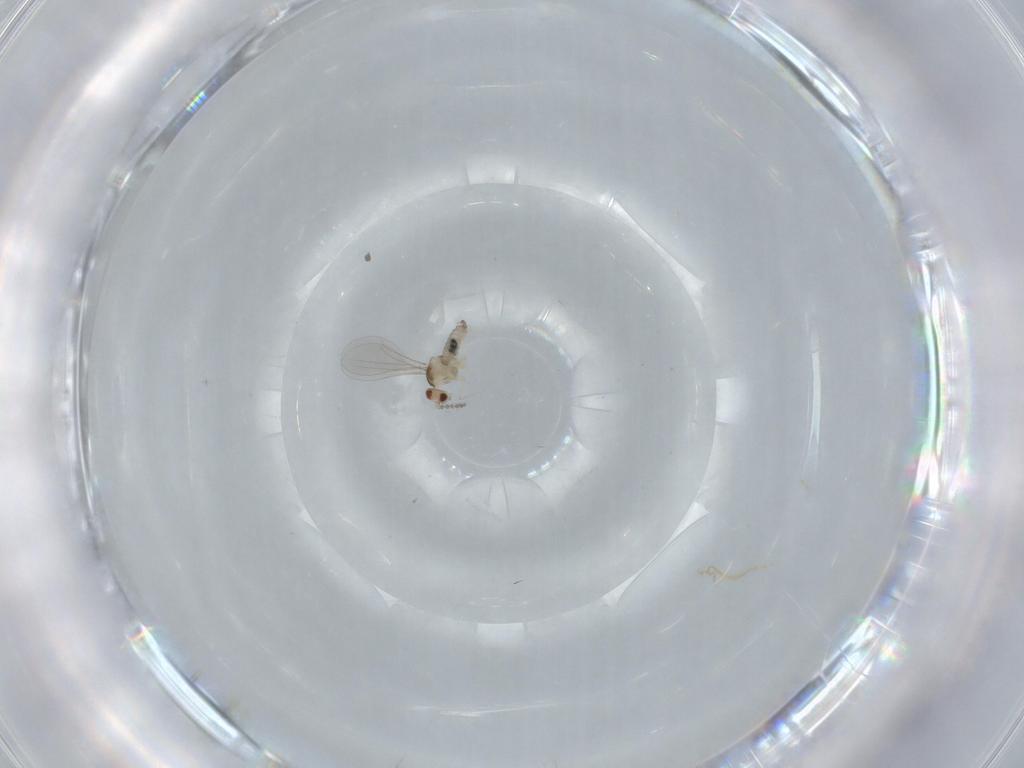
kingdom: Animalia
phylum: Arthropoda
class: Insecta
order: Diptera
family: Cecidomyiidae
